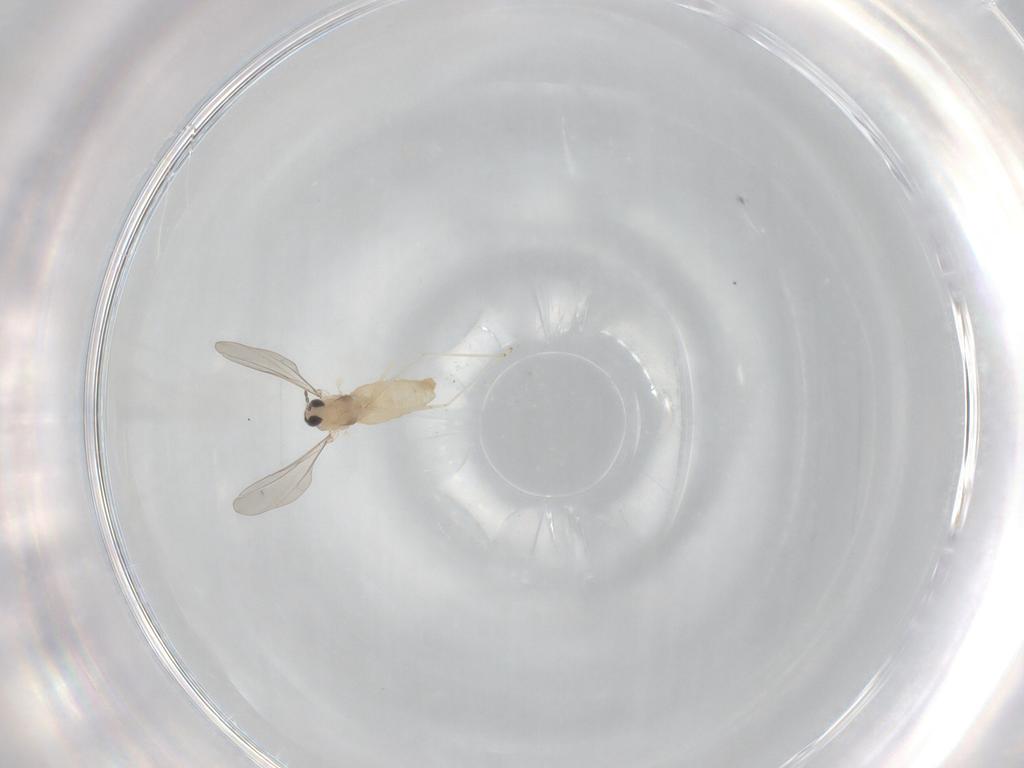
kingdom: Animalia
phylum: Arthropoda
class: Insecta
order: Diptera
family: Cecidomyiidae
